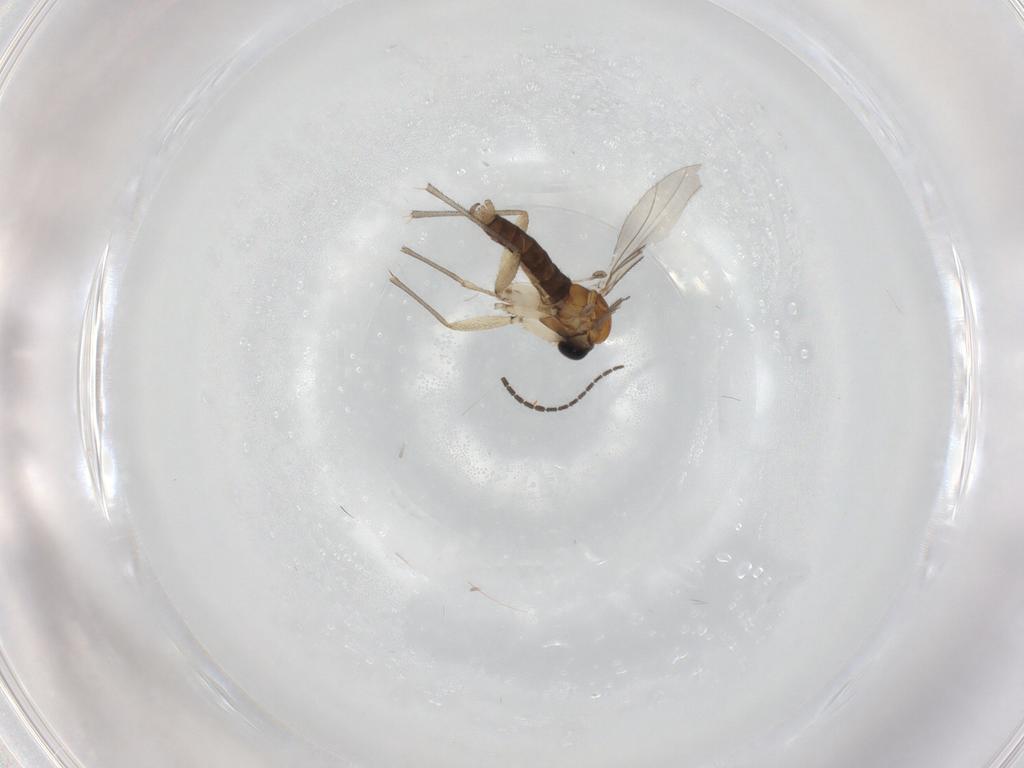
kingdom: Animalia
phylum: Arthropoda
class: Insecta
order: Diptera
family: Sciaridae
